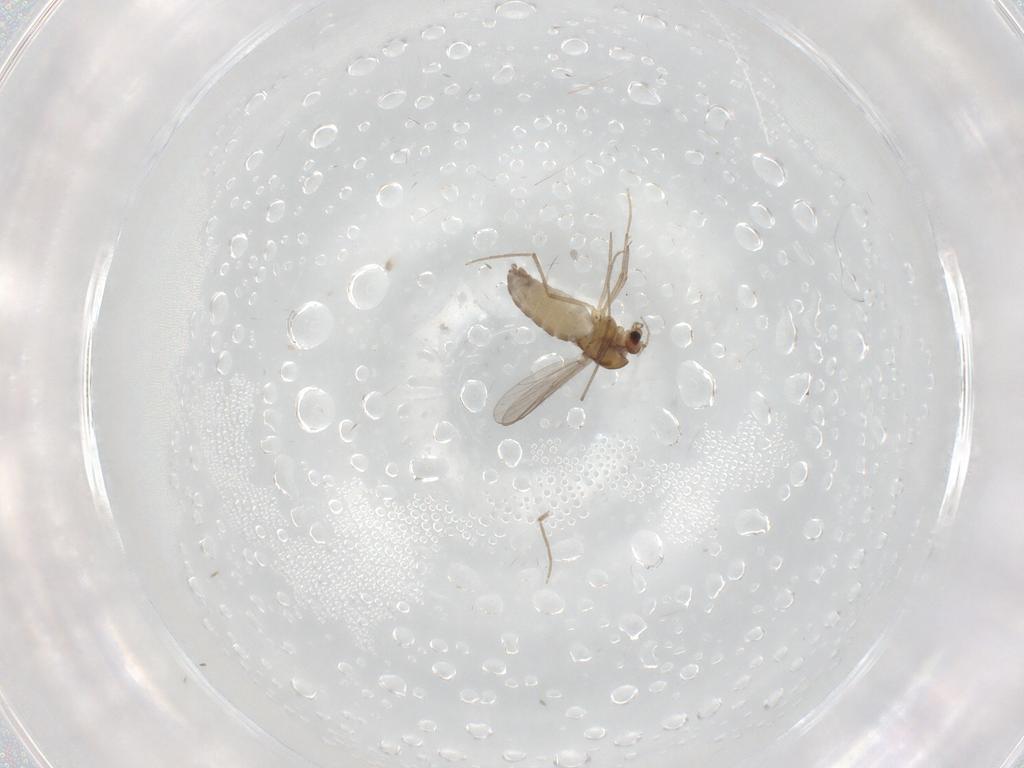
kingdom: Animalia
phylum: Arthropoda
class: Insecta
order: Diptera
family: Chironomidae
